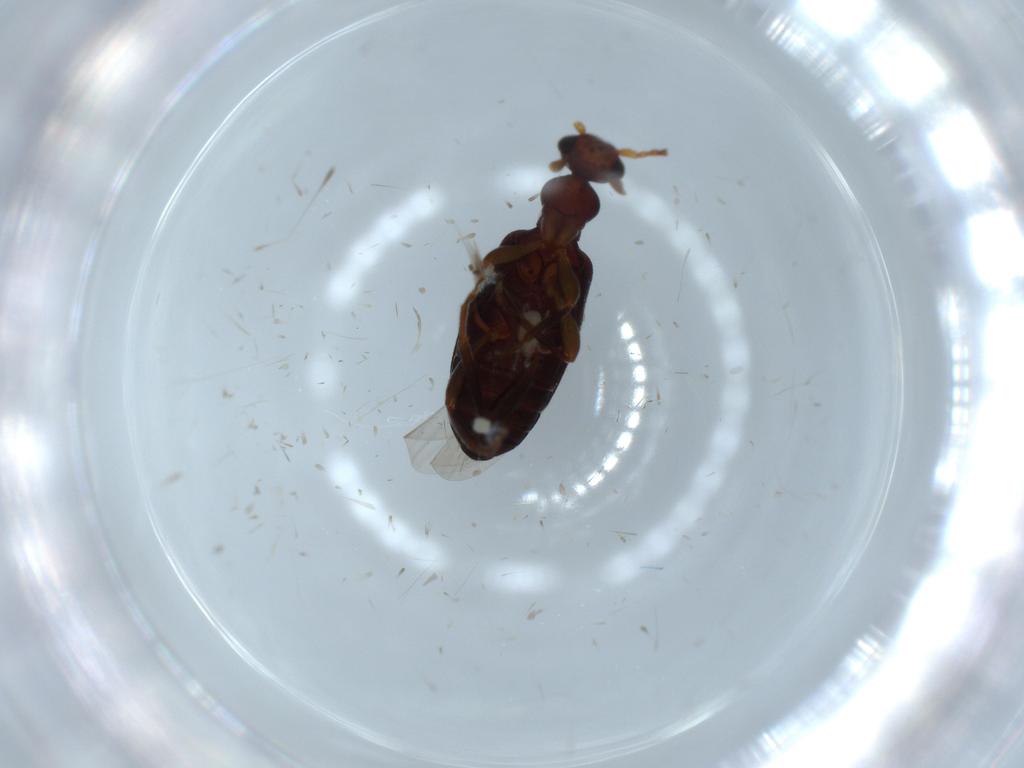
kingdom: Animalia
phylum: Arthropoda
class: Insecta
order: Coleoptera
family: Anthicidae
